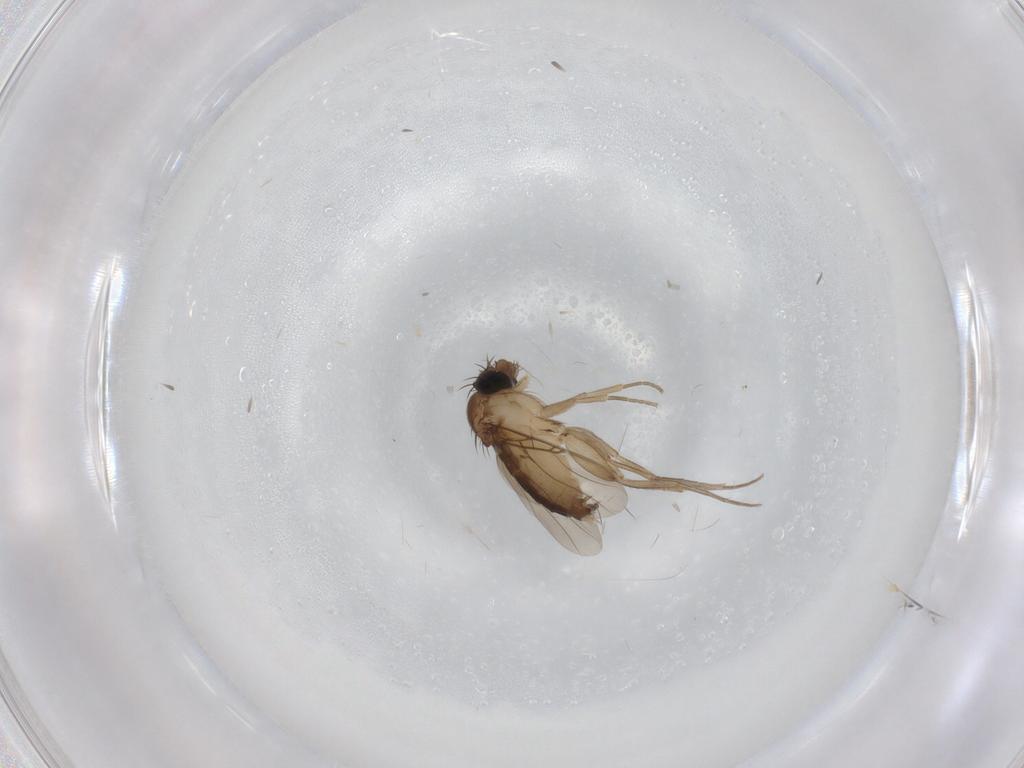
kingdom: Animalia
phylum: Arthropoda
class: Insecta
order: Diptera
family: Phoridae
